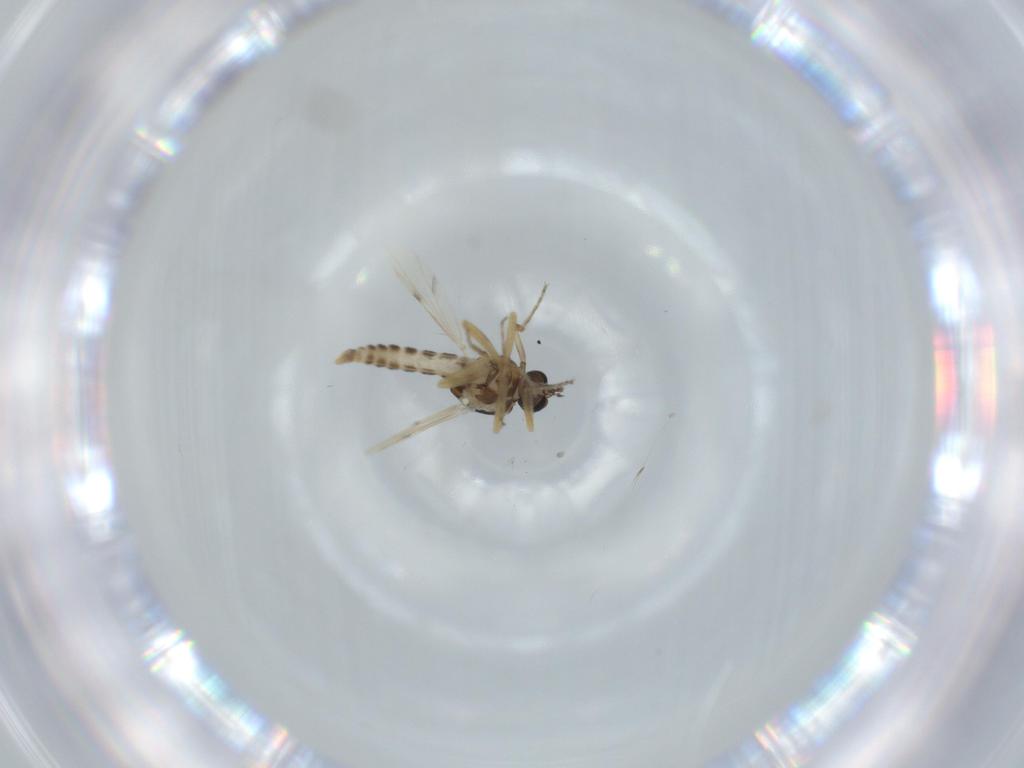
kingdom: Animalia
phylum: Arthropoda
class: Insecta
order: Diptera
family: Ceratopogonidae
